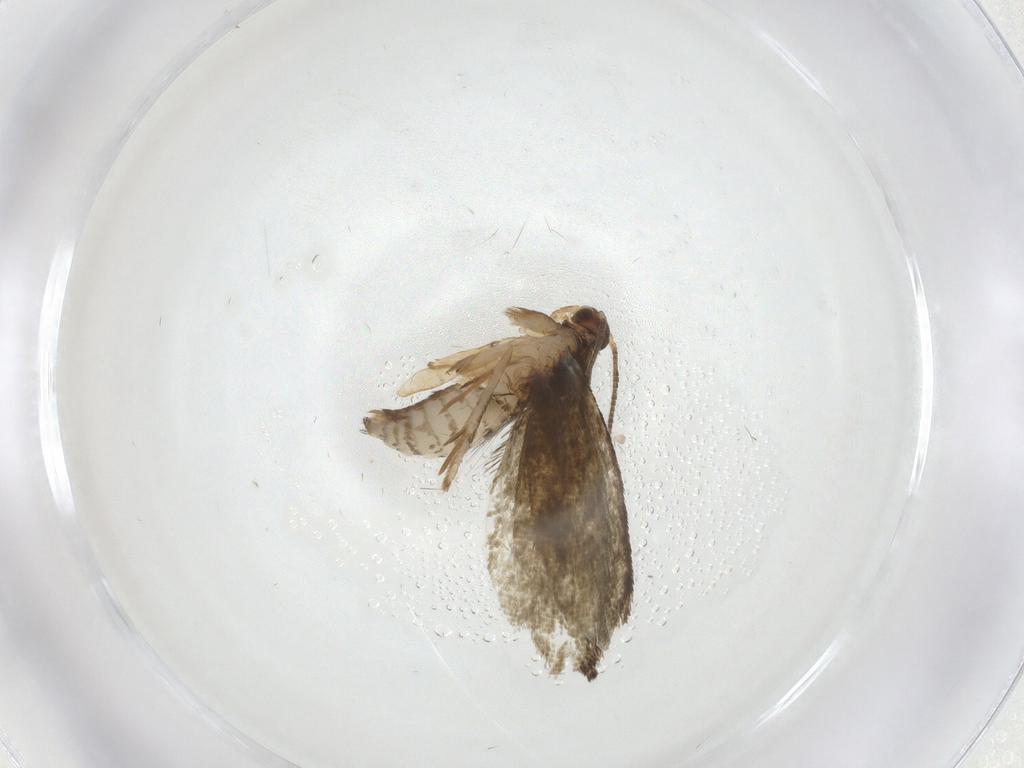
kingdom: Animalia
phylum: Arthropoda
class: Insecta
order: Lepidoptera
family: Tineidae
